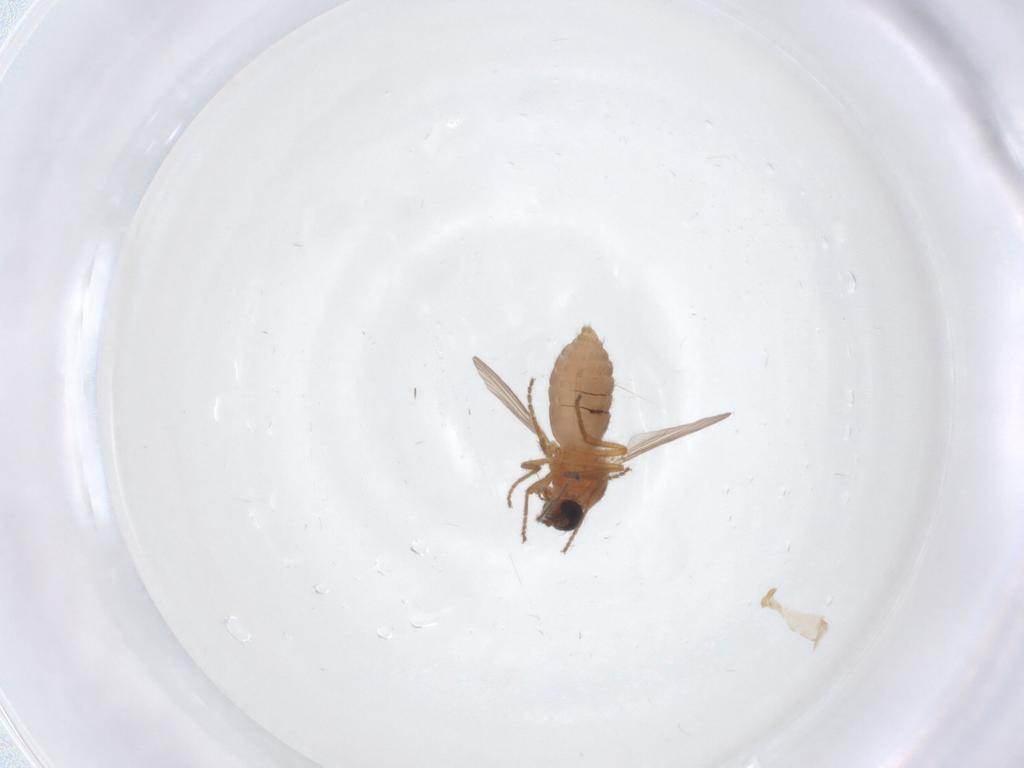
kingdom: Animalia
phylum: Arthropoda
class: Insecta
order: Diptera
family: Ceratopogonidae
